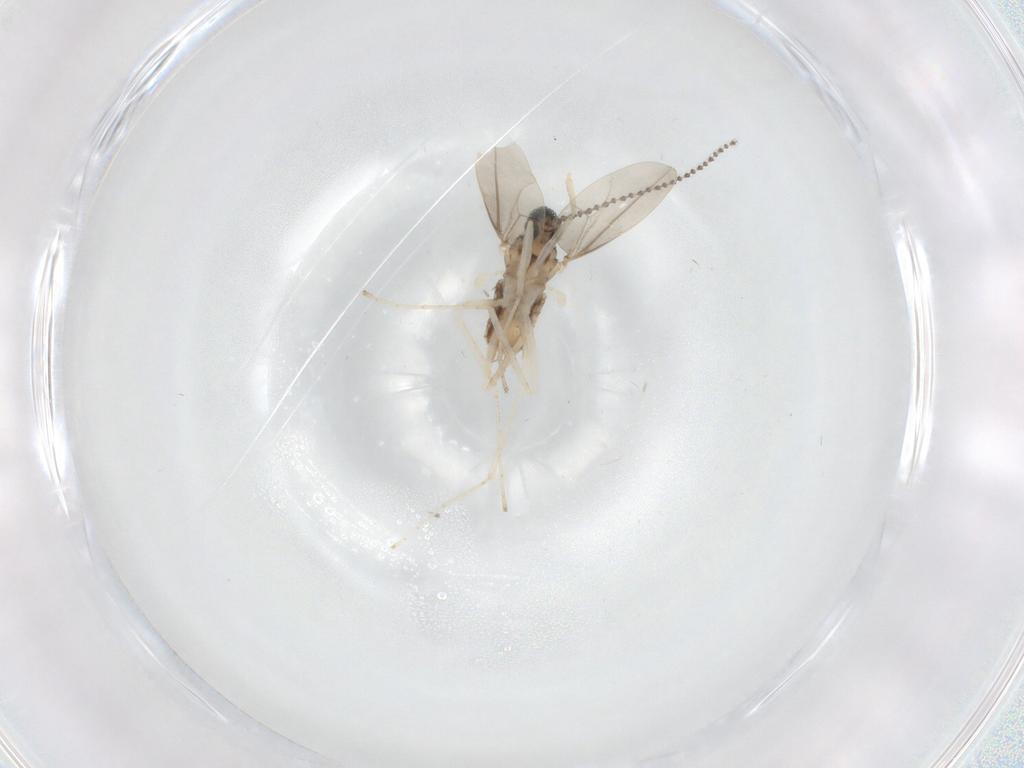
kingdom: Animalia
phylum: Arthropoda
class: Insecta
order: Diptera
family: Ceratopogonidae
